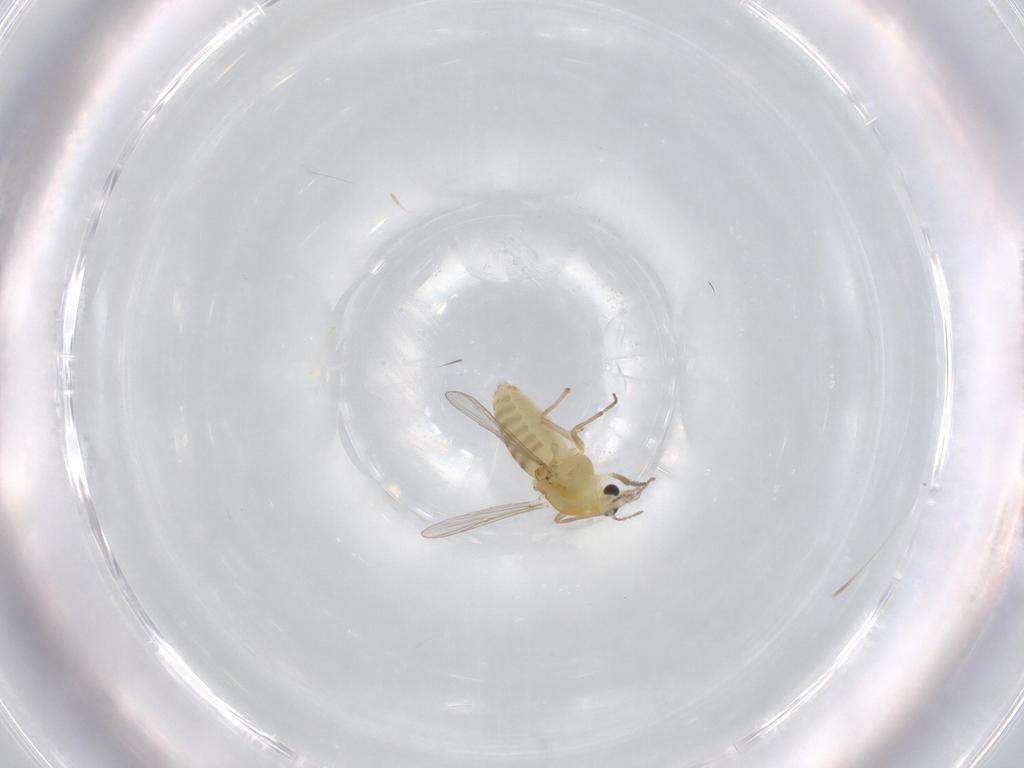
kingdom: Animalia
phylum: Arthropoda
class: Insecta
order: Diptera
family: Chironomidae
